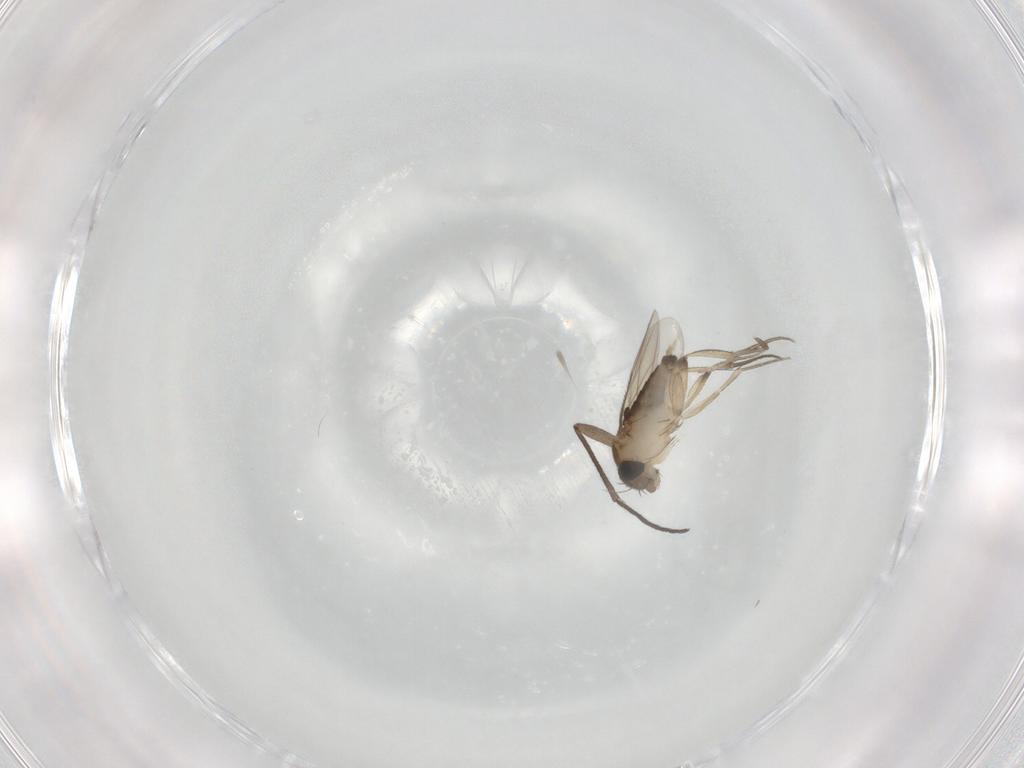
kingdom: Animalia
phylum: Arthropoda
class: Insecta
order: Diptera
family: Phoridae
